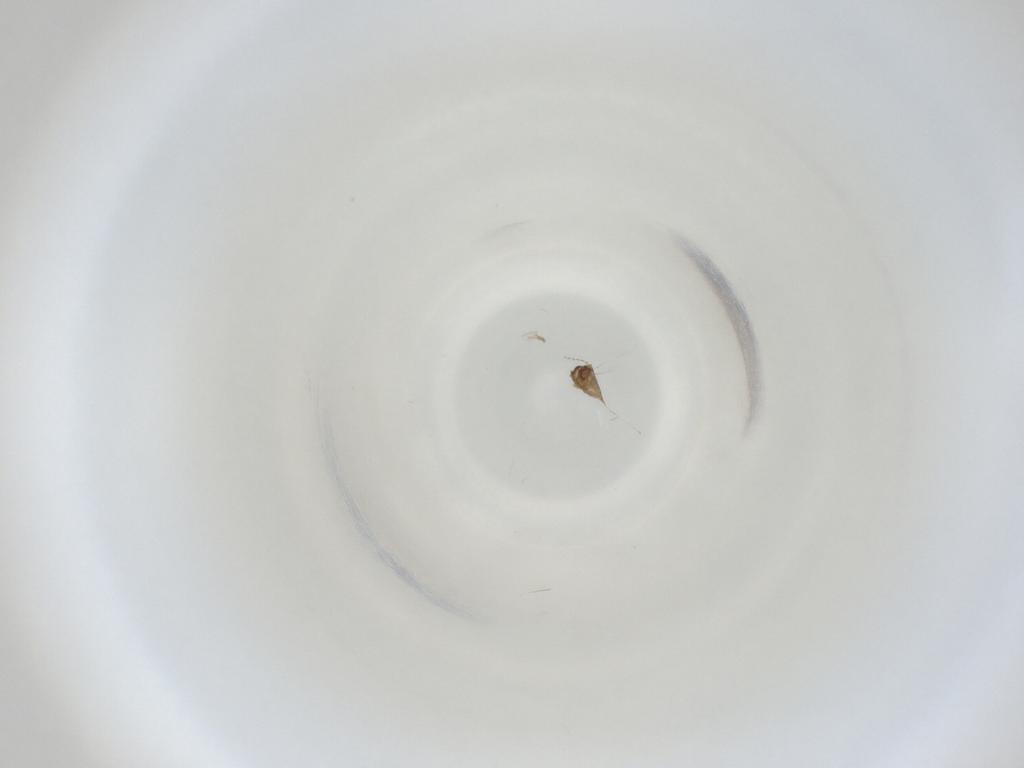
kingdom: Animalia
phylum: Arthropoda
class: Insecta
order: Diptera
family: Cecidomyiidae
